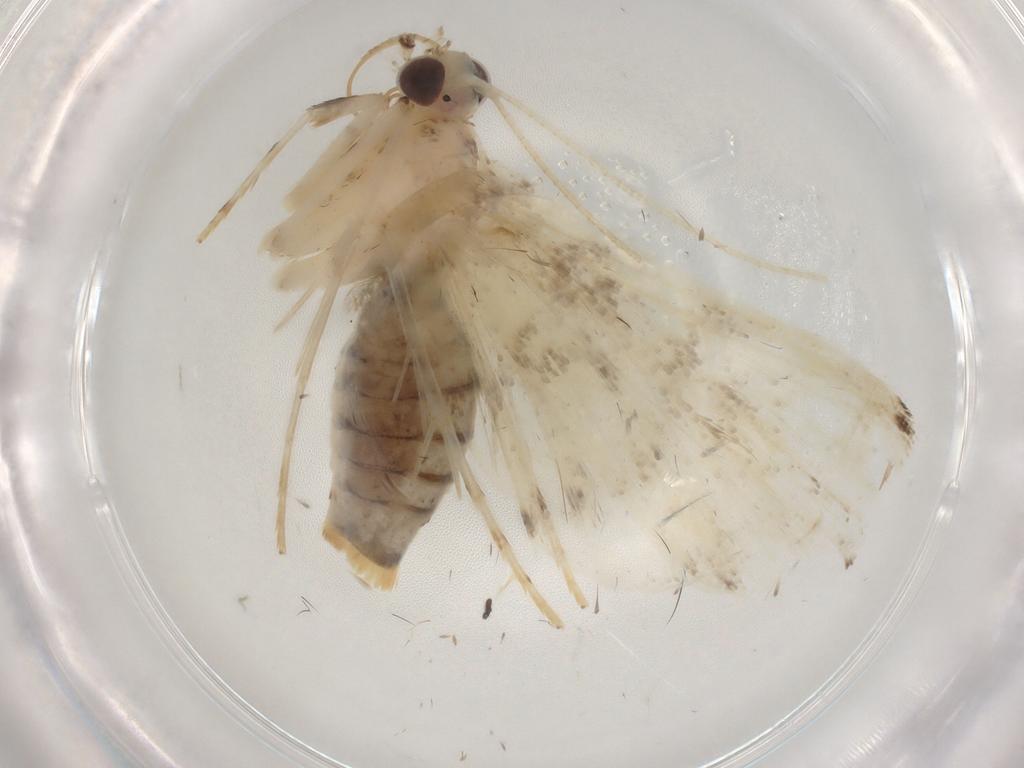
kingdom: Animalia
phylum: Arthropoda
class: Insecta
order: Lepidoptera
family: Crambidae
